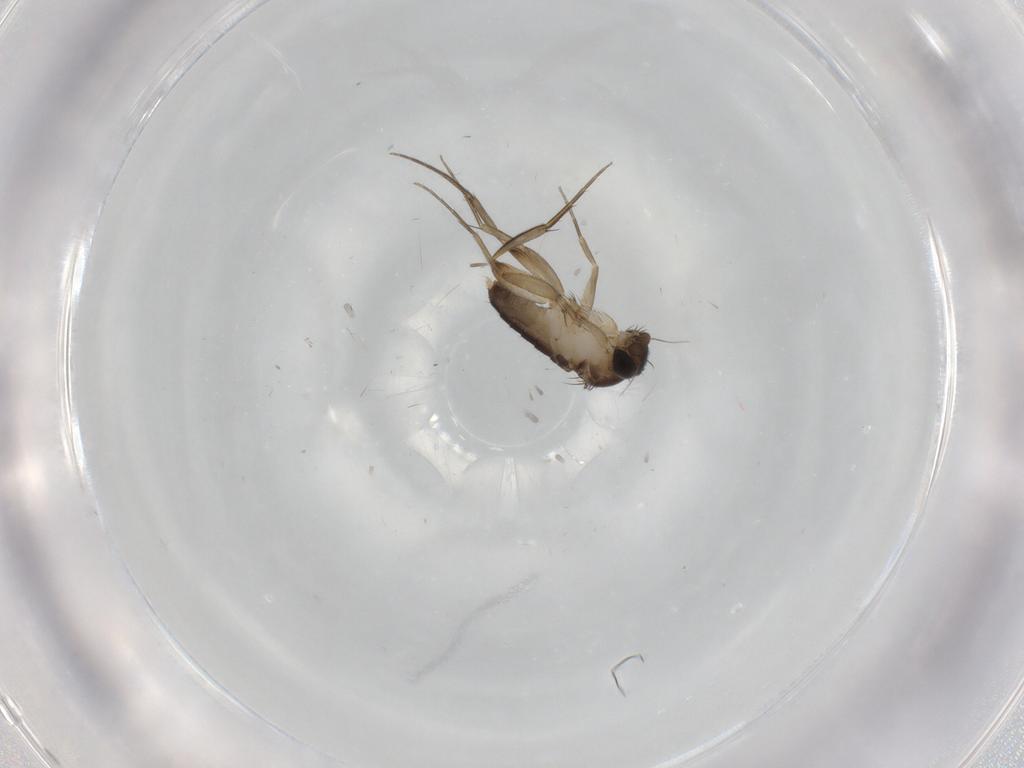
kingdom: Animalia
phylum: Arthropoda
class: Insecta
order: Diptera
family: Phoridae
